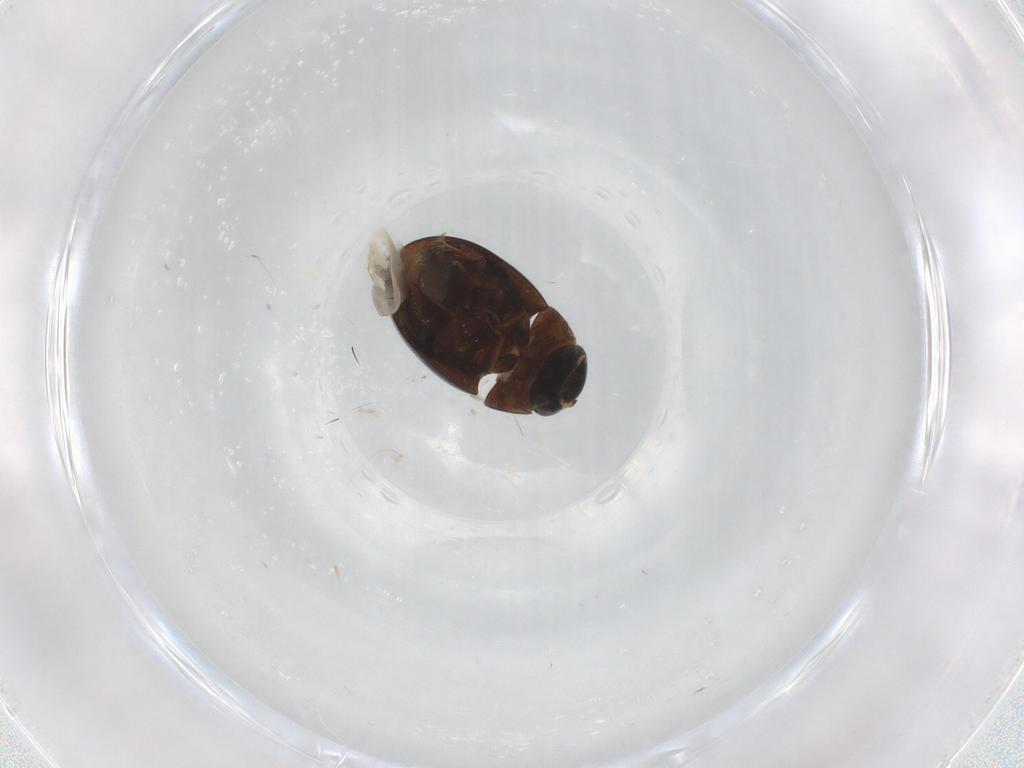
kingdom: Animalia
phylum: Arthropoda
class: Insecta
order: Coleoptera
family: Hydrophilidae
